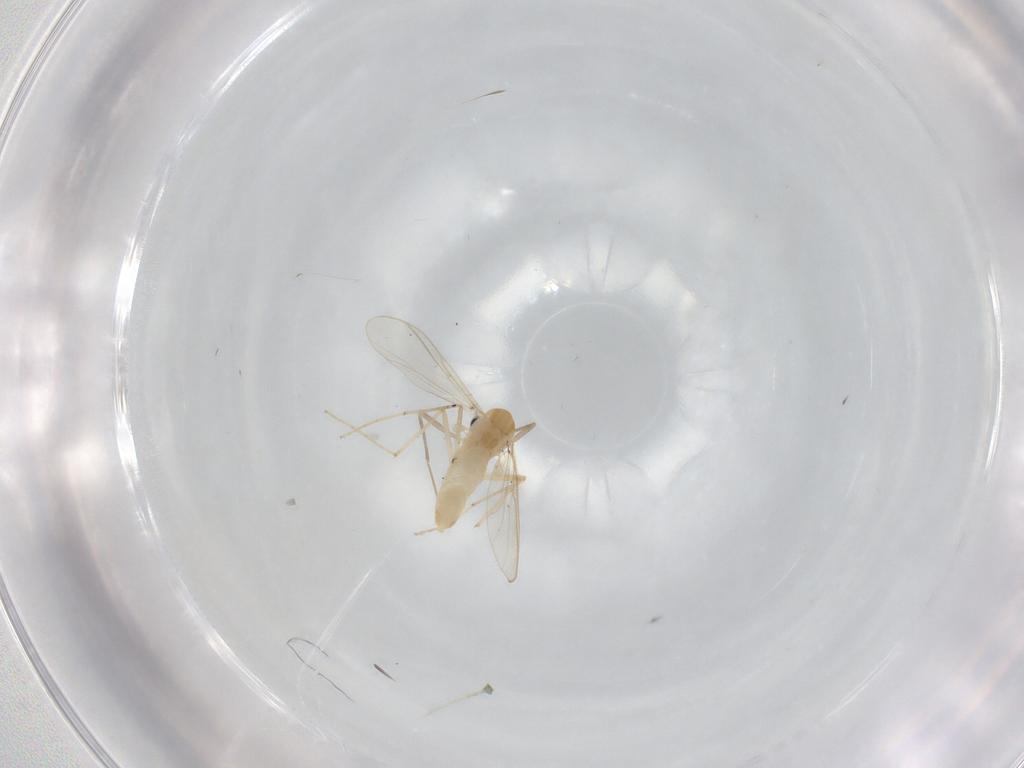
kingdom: Animalia
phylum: Arthropoda
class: Insecta
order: Diptera
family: Chironomidae
